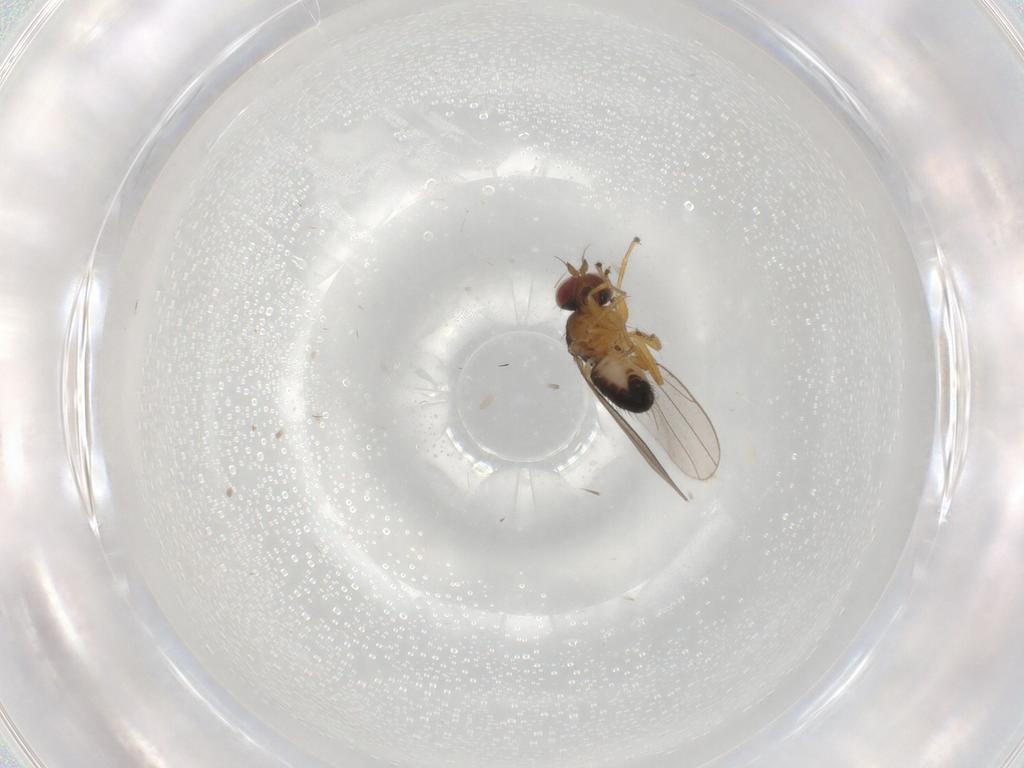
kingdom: Animalia
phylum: Arthropoda
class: Insecta
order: Diptera
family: Ephydridae
